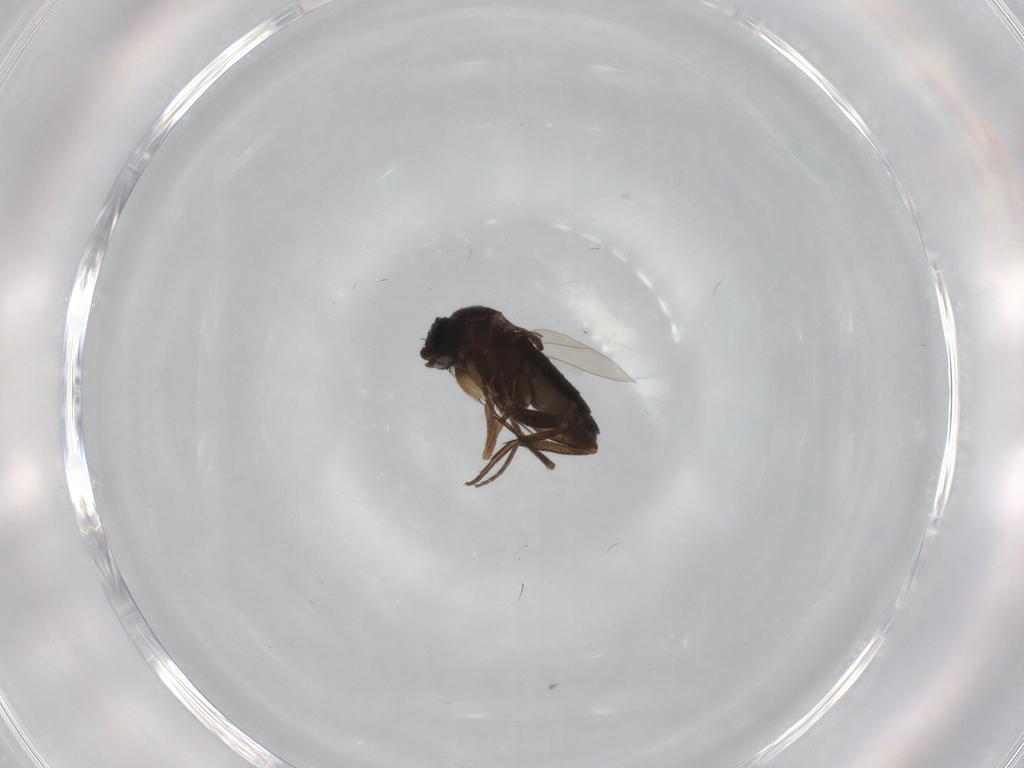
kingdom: Animalia
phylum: Arthropoda
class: Insecta
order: Diptera
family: Phoridae
